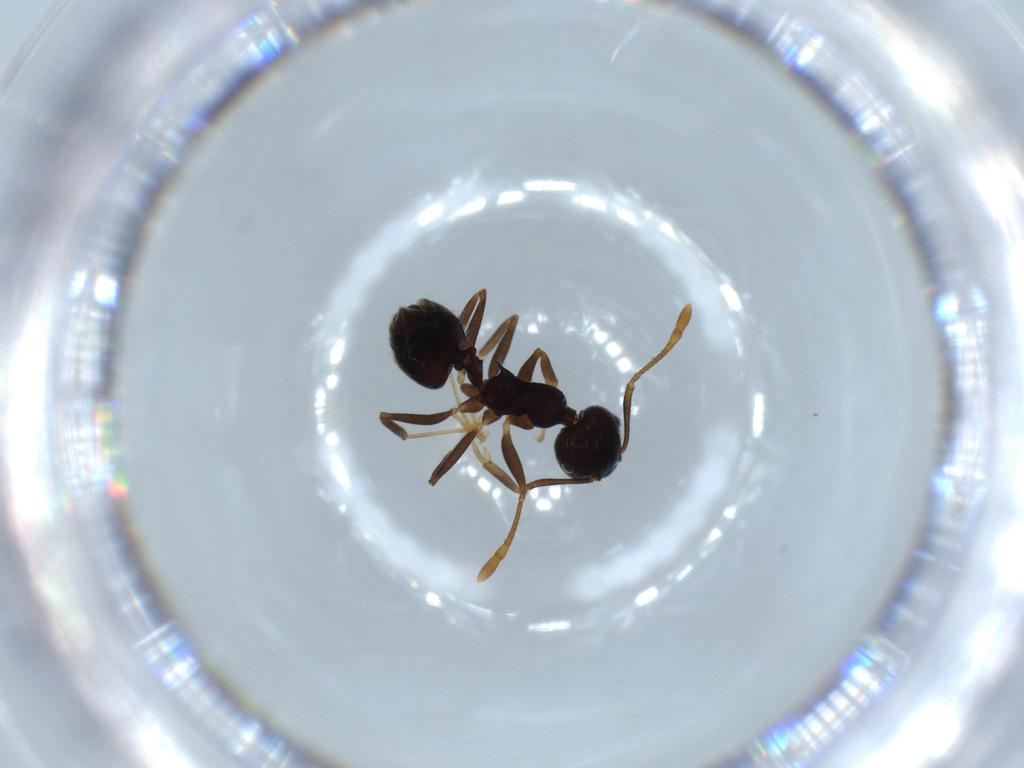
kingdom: Animalia
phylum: Arthropoda
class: Insecta
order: Hymenoptera
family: Formicidae
